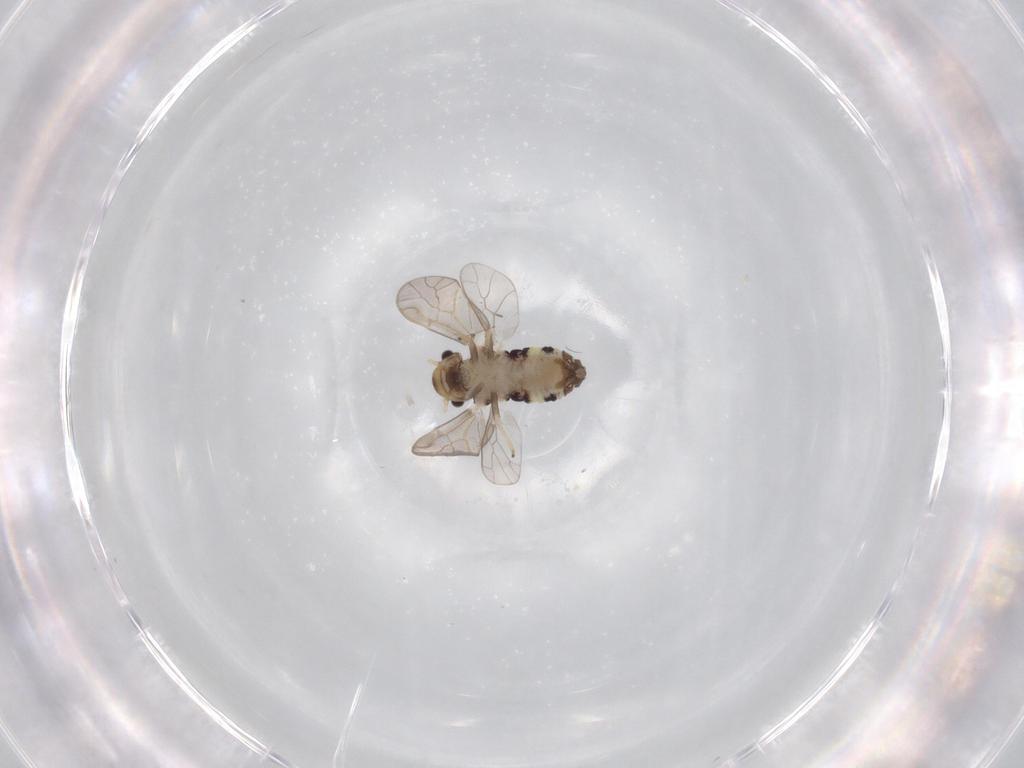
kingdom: Animalia
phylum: Arthropoda
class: Insecta
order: Psocodea
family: Ectopsocidae
